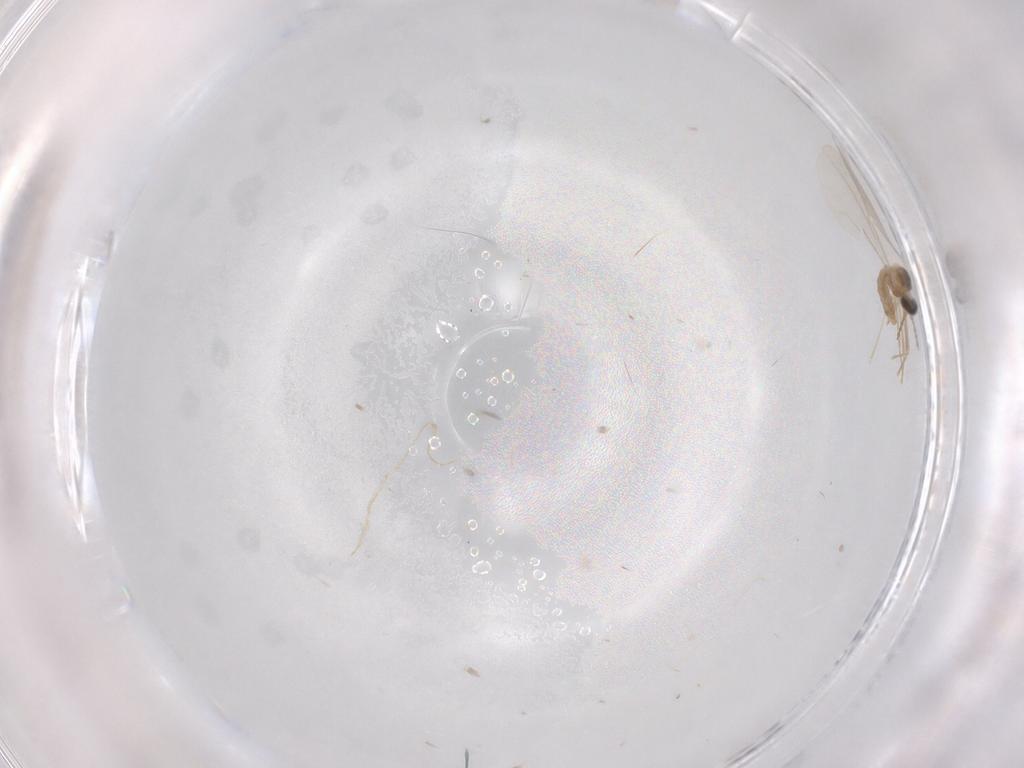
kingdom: Animalia
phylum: Arthropoda
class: Insecta
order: Diptera
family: Cecidomyiidae
